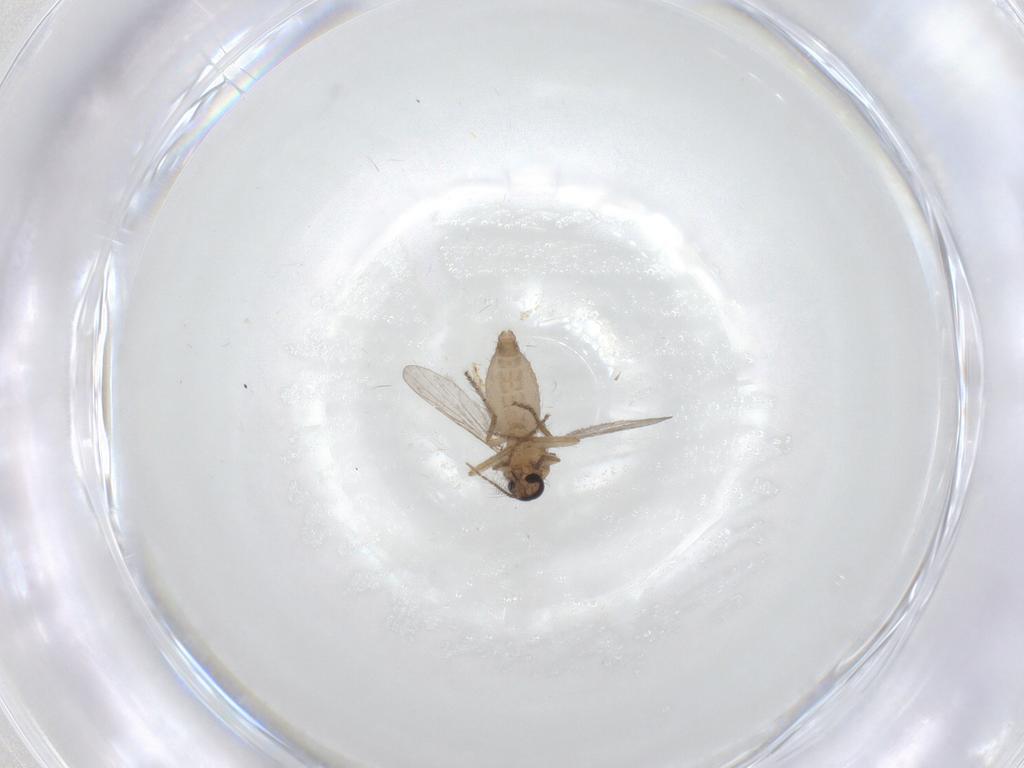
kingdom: Animalia
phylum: Arthropoda
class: Insecta
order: Diptera
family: Ceratopogonidae
